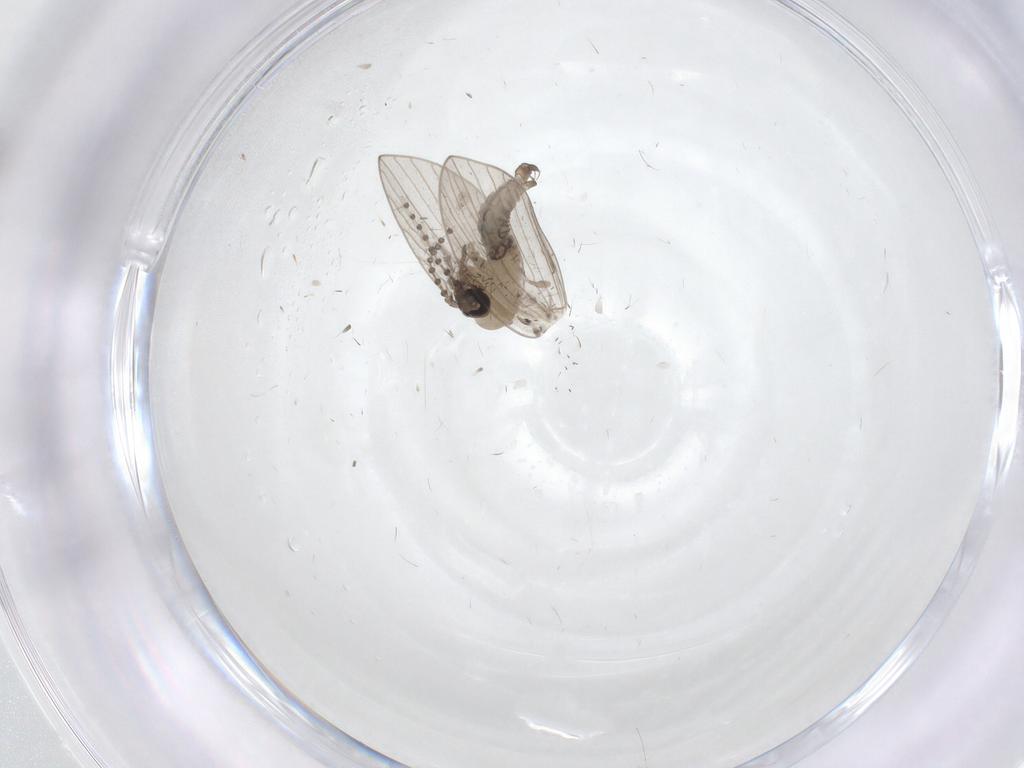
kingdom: Animalia
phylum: Arthropoda
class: Insecta
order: Diptera
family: Psychodidae
